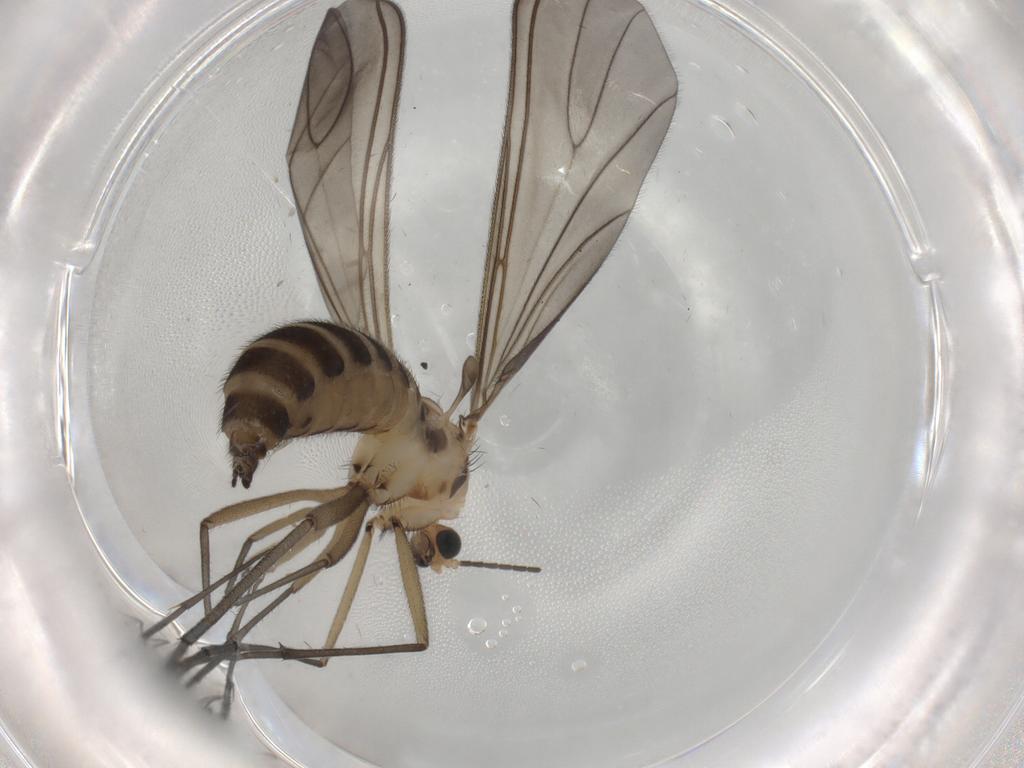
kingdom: Animalia
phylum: Arthropoda
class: Insecta
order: Diptera
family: Sciaridae
